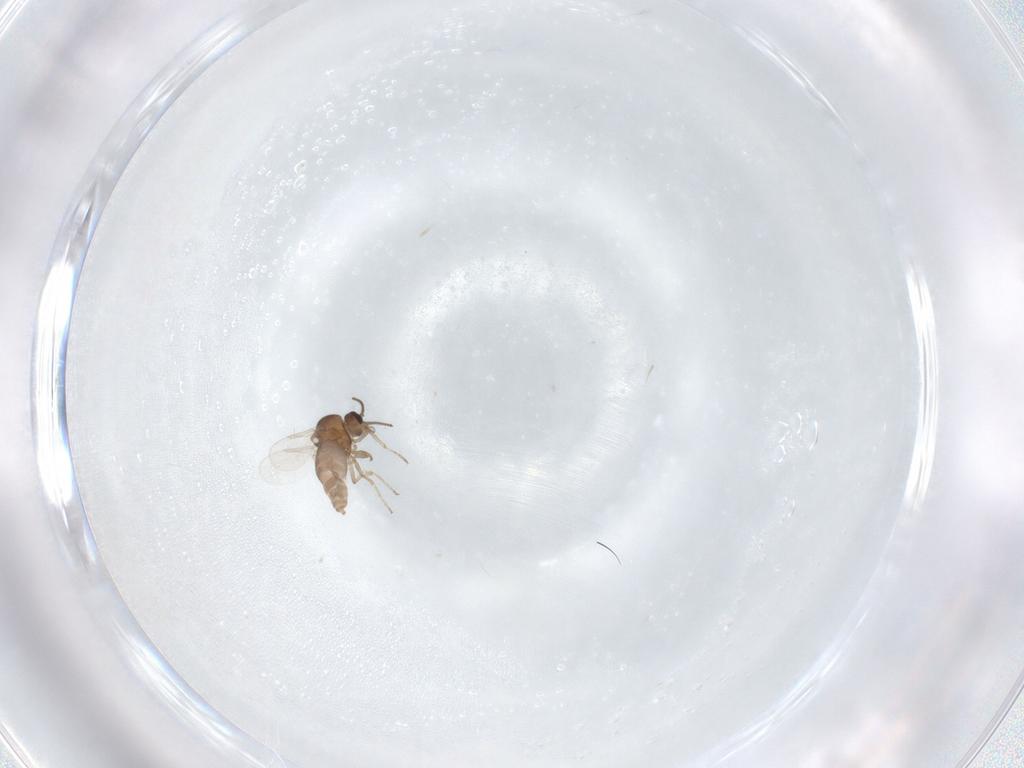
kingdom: Animalia
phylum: Arthropoda
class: Insecta
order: Diptera
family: Ceratopogonidae
